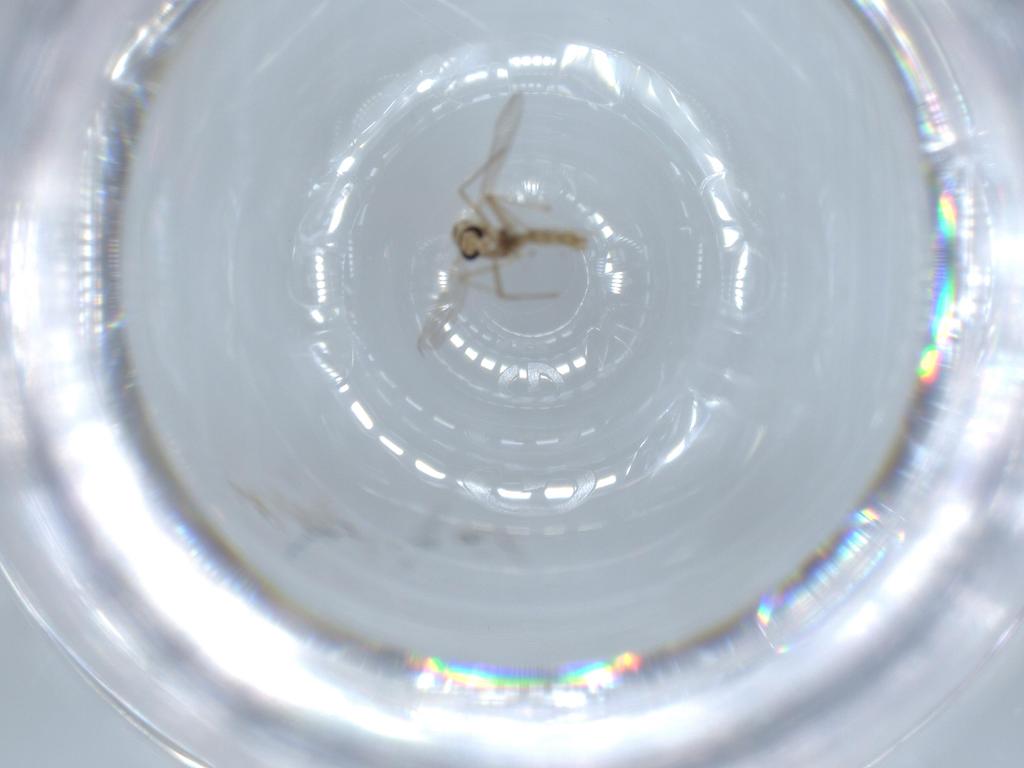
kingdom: Animalia
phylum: Arthropoda
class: Insecta
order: Diptera
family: Chironomidae
